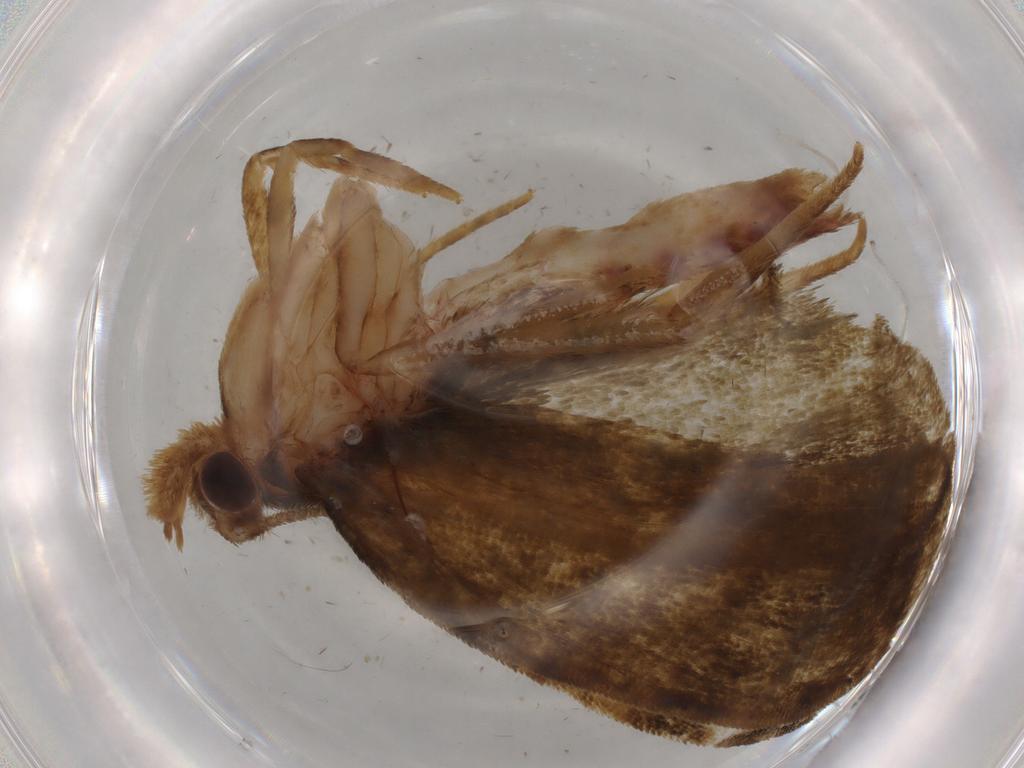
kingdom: Animalia
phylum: Arthropoda
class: Insecta
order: Lepidoptera
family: Geometridae
